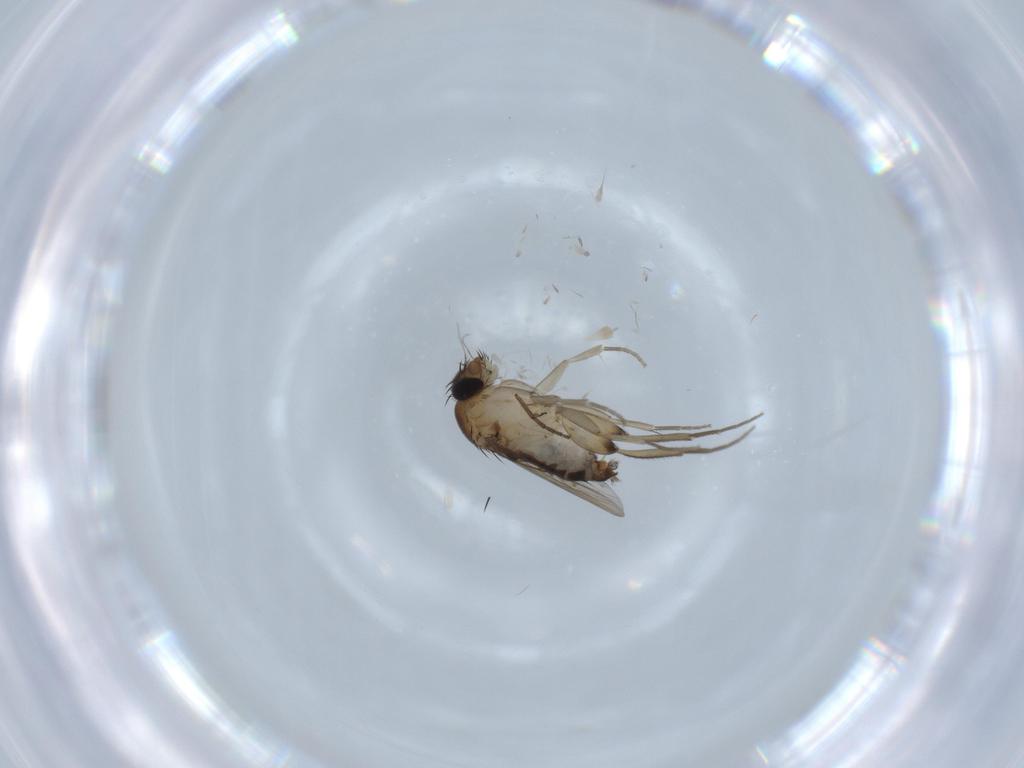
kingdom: Animalia
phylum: Arthropoda
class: Insecta
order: Diptera
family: Phoridae
